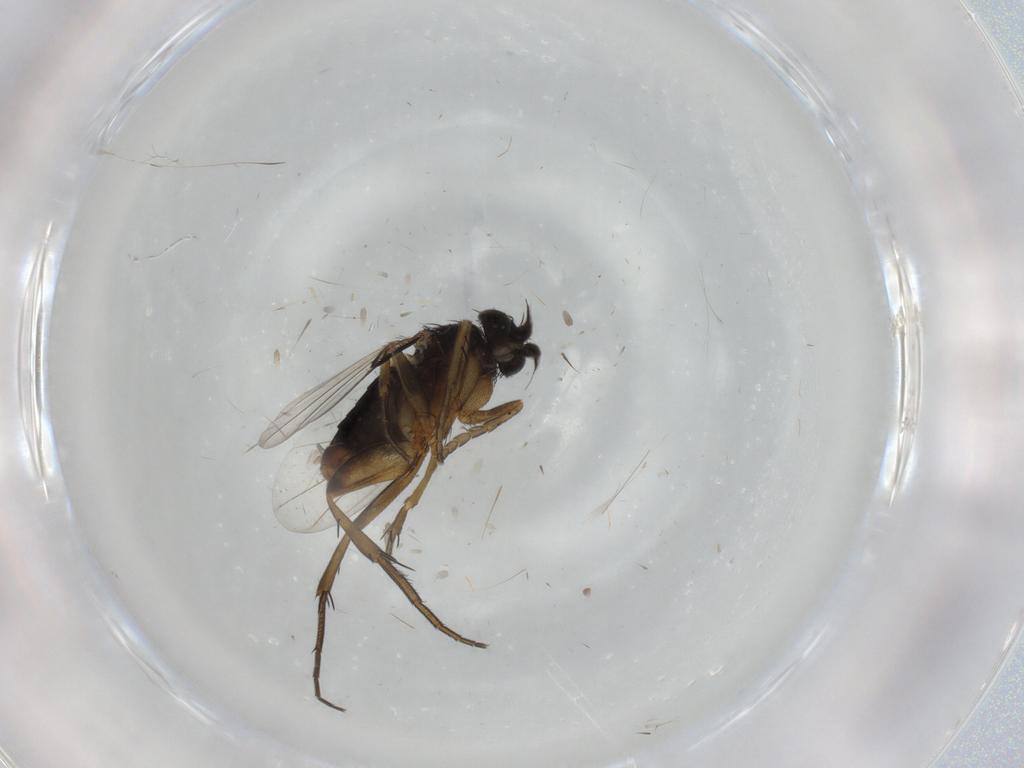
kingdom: Animalia
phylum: Arthropoda
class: Insecta
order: Diptera
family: Phoridae
